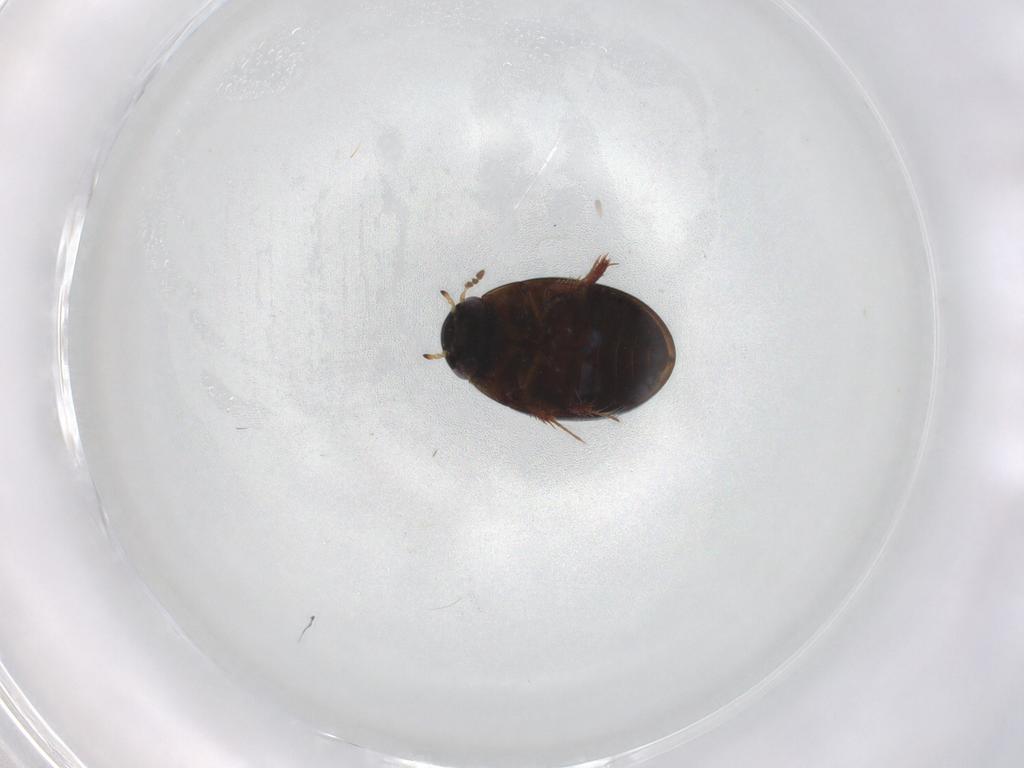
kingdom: Animalia
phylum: Arthropoda
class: Insecta
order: Coleoptera
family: Hydrophilidae
